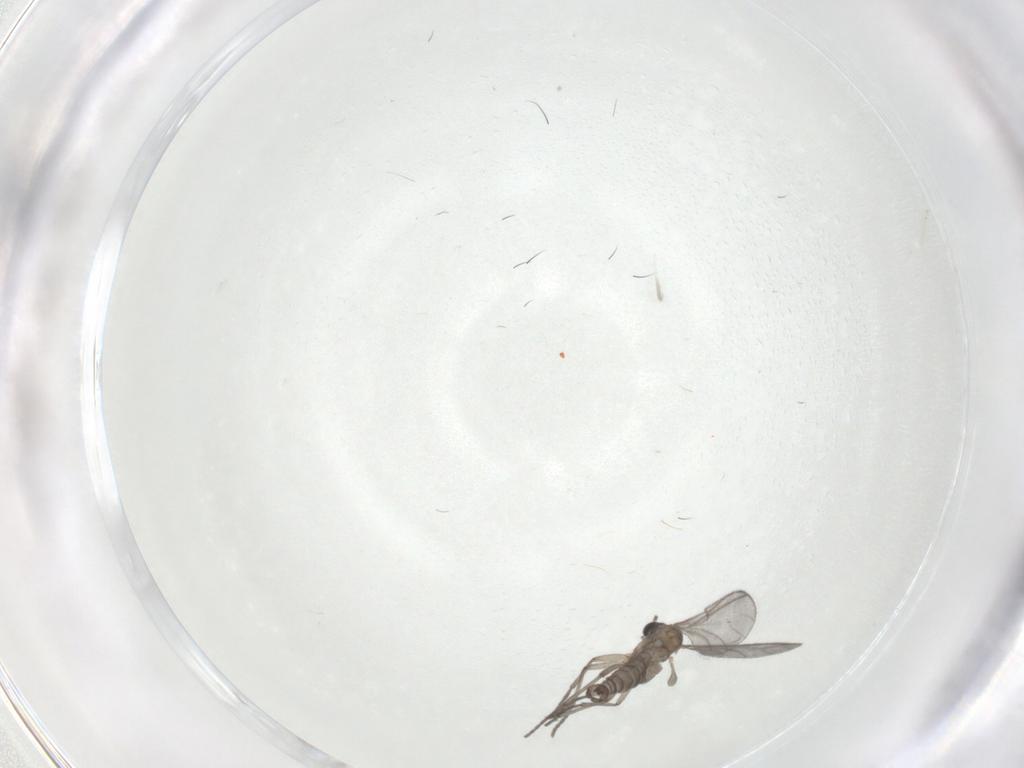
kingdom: Animalia
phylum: Arthropoda
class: Insecta
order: Diptera
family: Sciaridae
